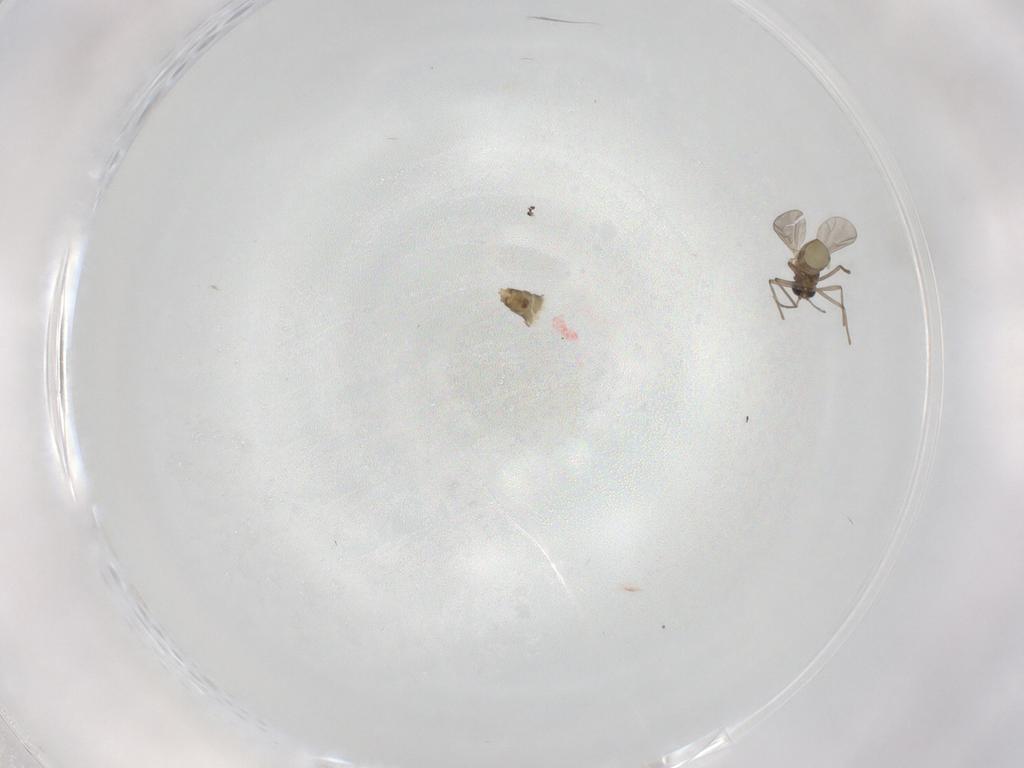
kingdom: Animalia
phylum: Arthropoda
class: Insecta
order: Diptera
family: Chironomidae
